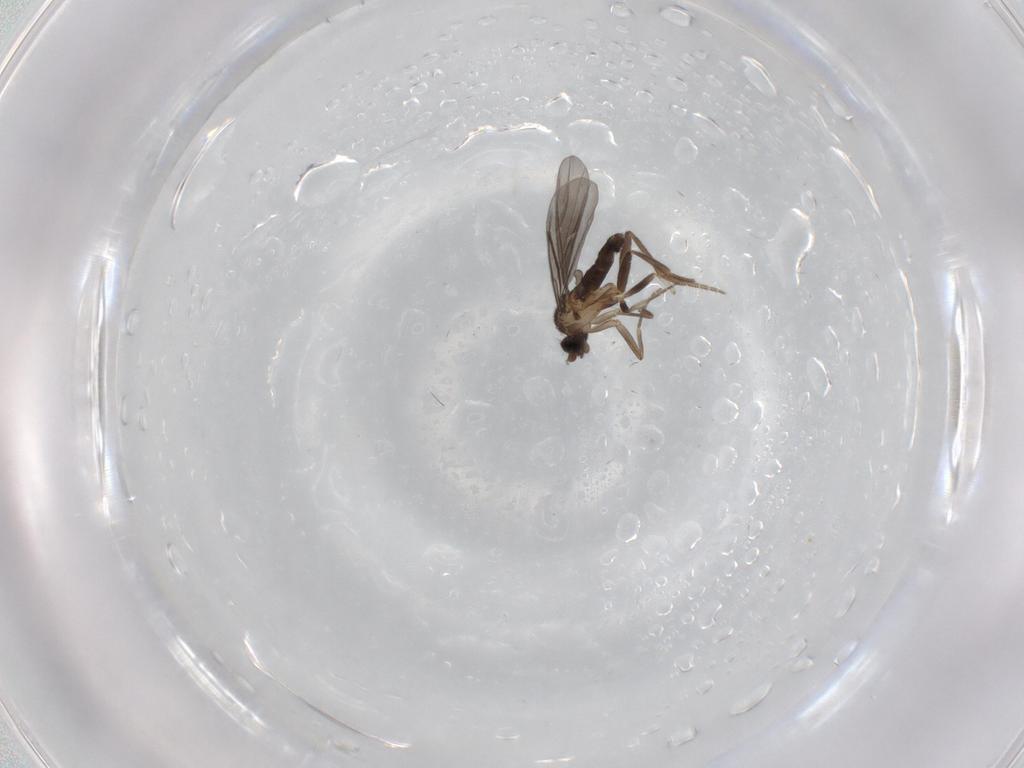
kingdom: Animalia
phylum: Arthropoda
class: Insecta
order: Diptera
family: Phoridae
